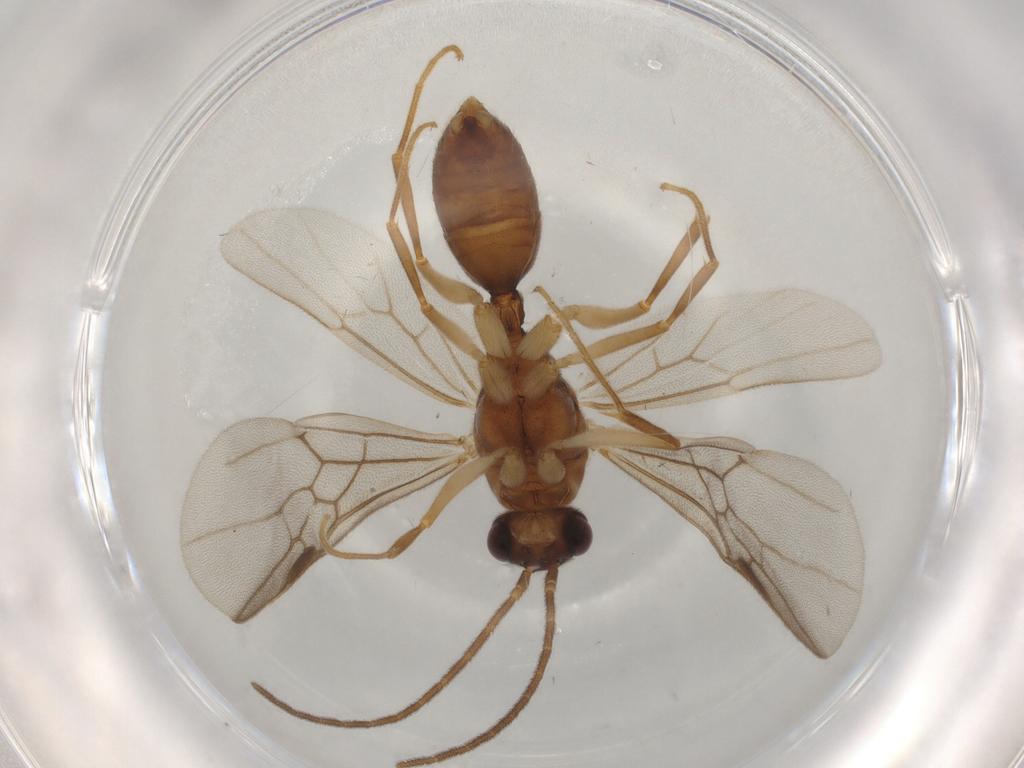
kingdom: Animalia
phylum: Arthropoda
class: Insecta
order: Hymenoptera
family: Formicidae
